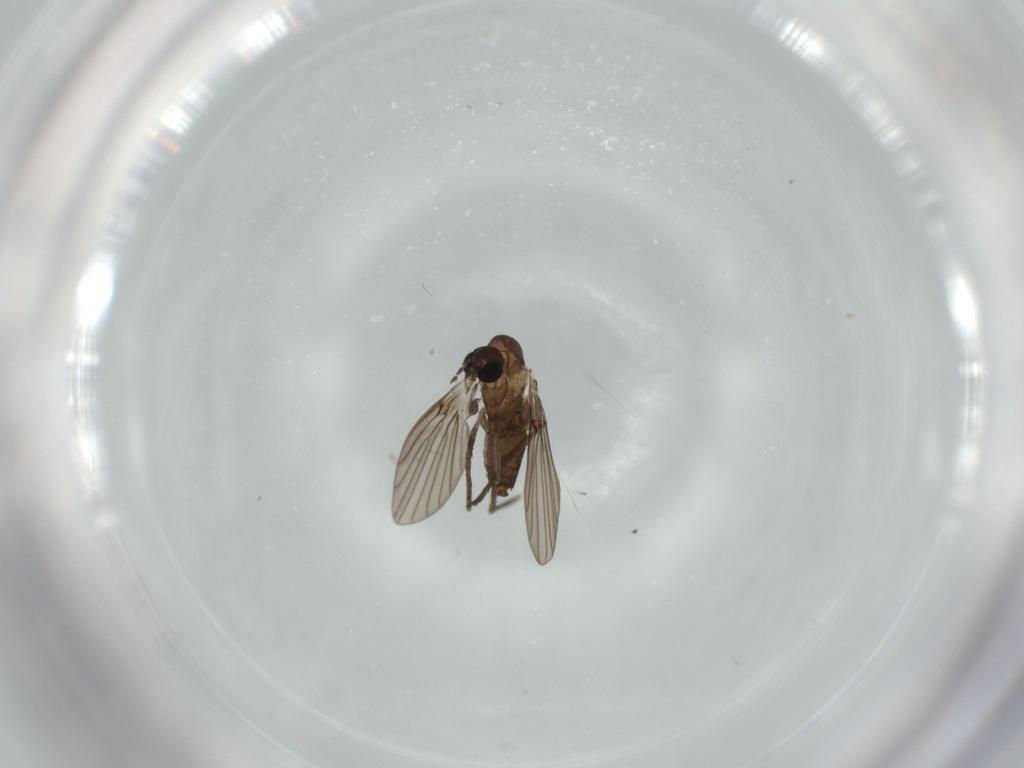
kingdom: Animalia
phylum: Arthropoda
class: Insecta
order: Diptera
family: Psychodidae
